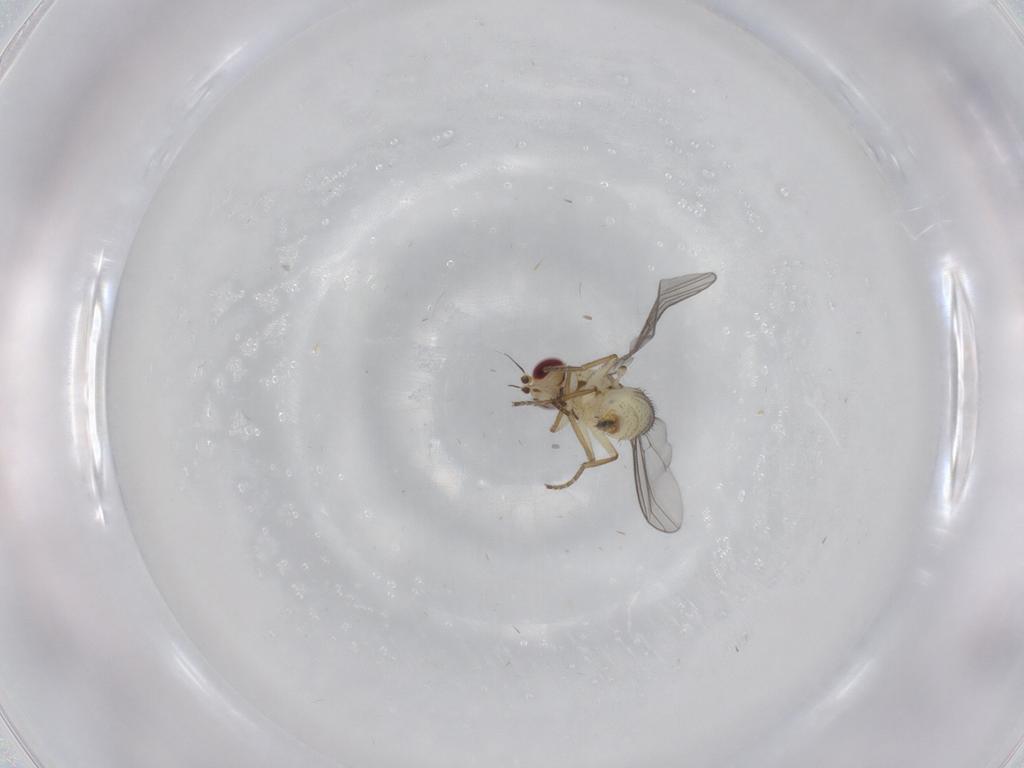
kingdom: Animalia
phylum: Arthropoda
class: Insecta
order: Diptera
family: Agromyzidae
